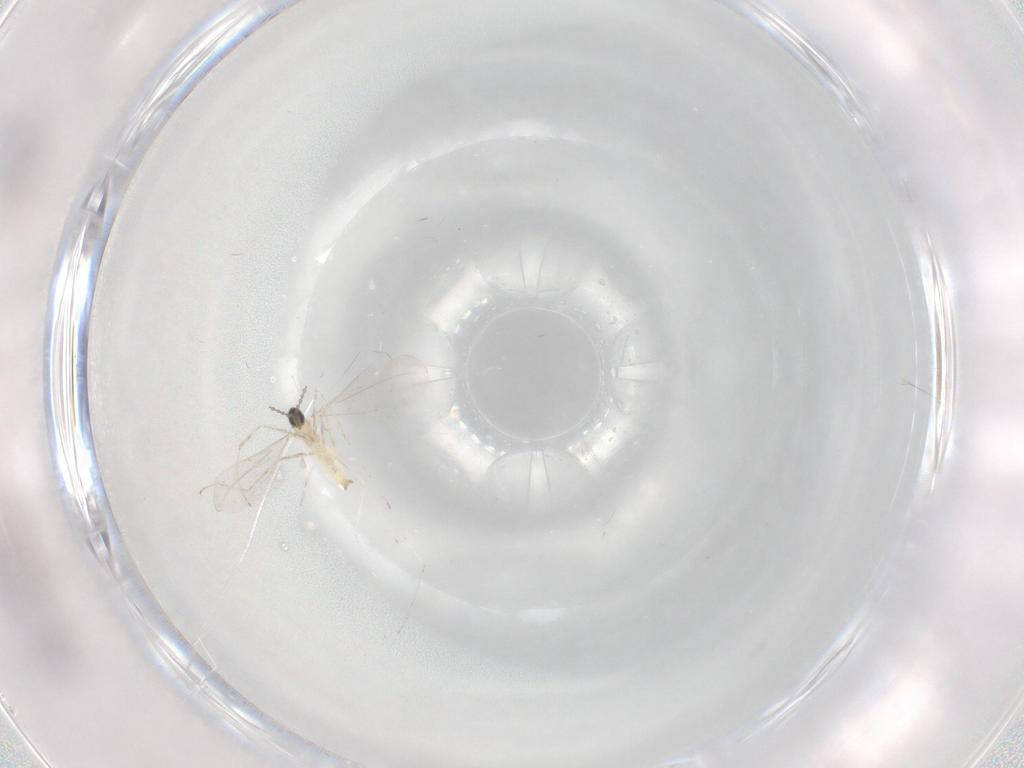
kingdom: Animalia
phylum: Arthropoda
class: Insecta
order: Diptera
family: Cecidomyiidae
